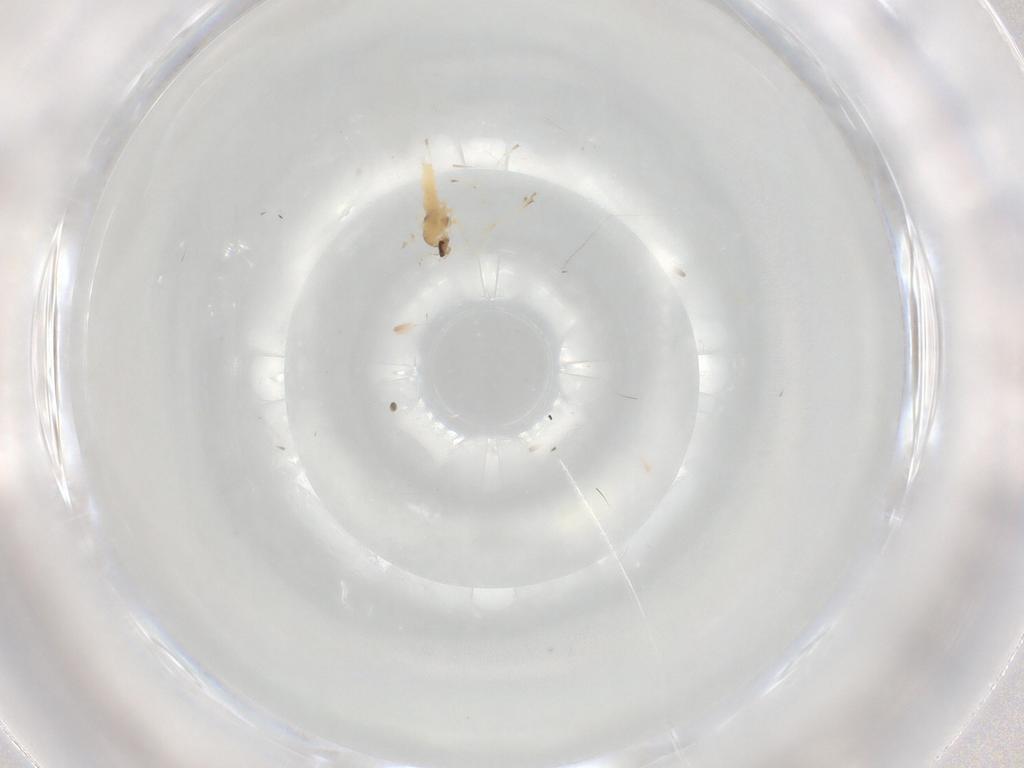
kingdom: Animalia
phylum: Arthropoda
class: Insecta
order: Diptera
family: Cecidomyiidae
